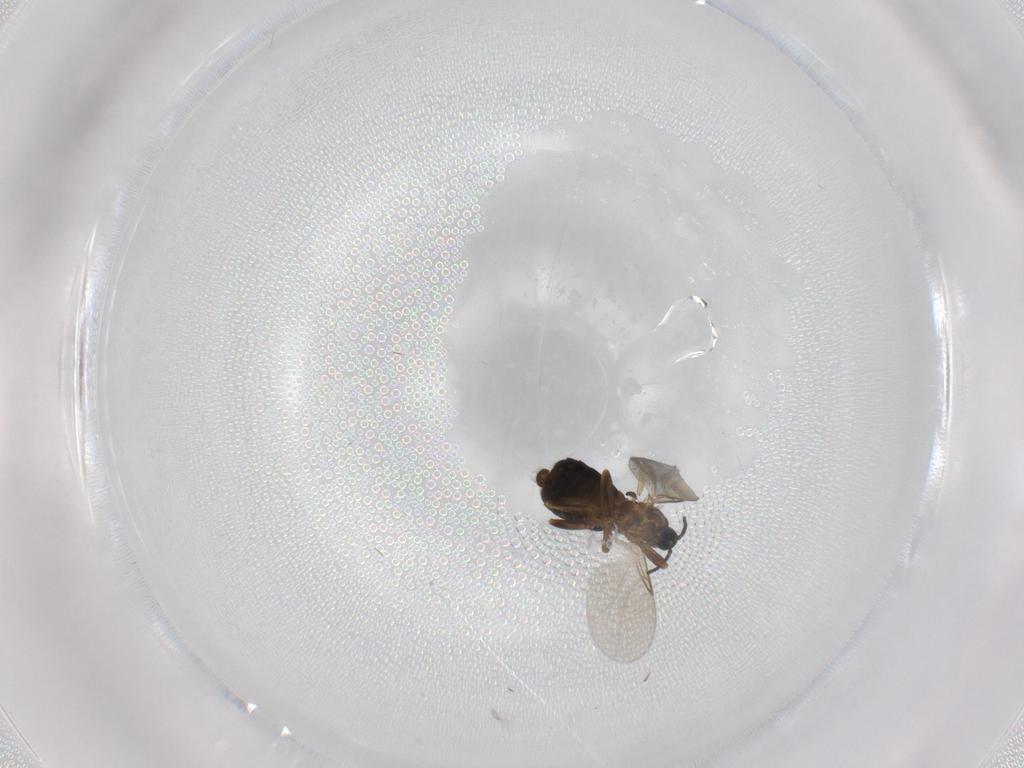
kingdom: Animalia
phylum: Arthropoda
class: Insecta
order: Diptera
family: Scatopsidae
